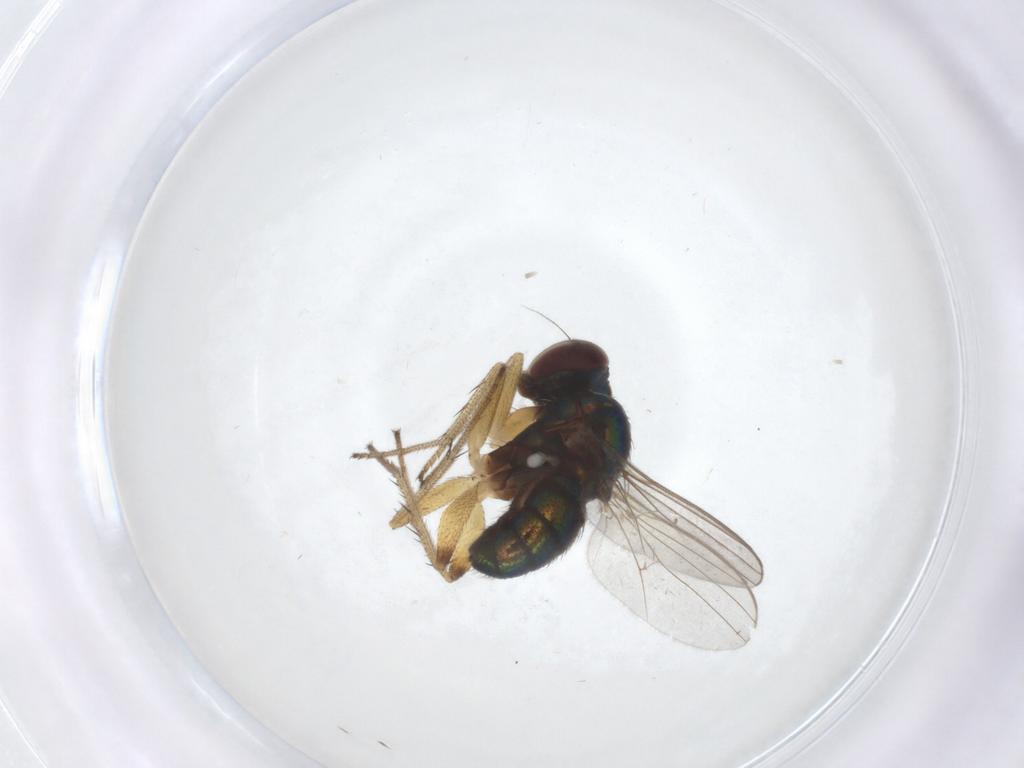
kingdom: Animalia
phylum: Arthropoda
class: Insecta
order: Diptera
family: Dolichopodidae
